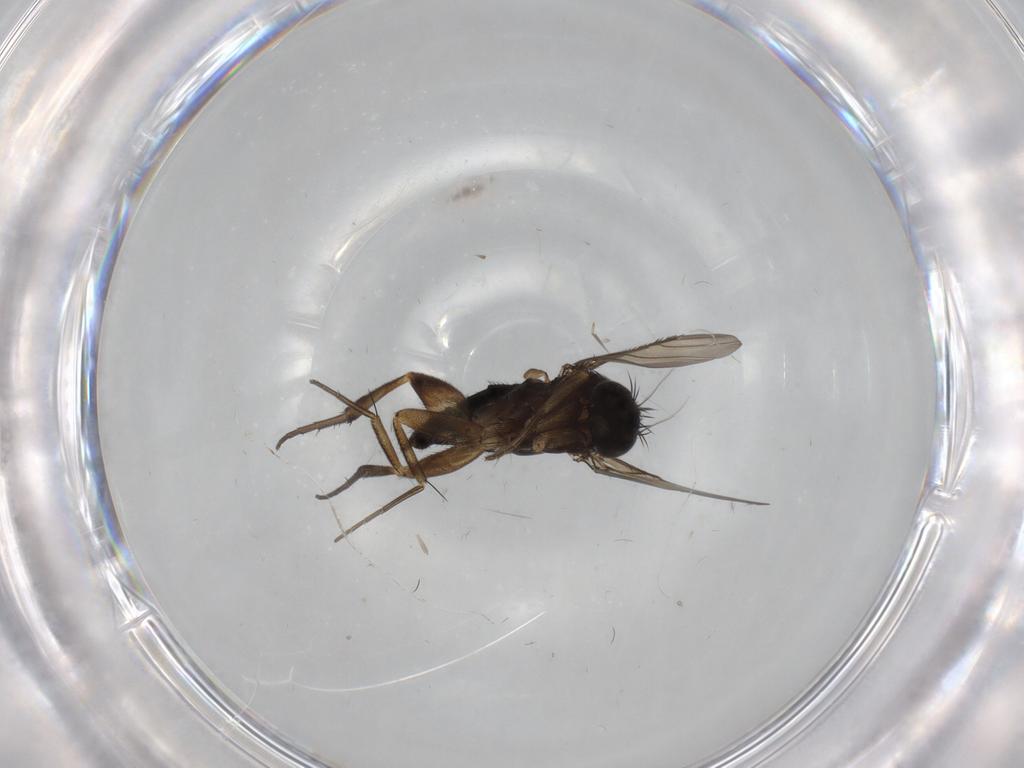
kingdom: Animalia
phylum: Arthropoda
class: Insecta
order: Diptera
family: Phoridae
